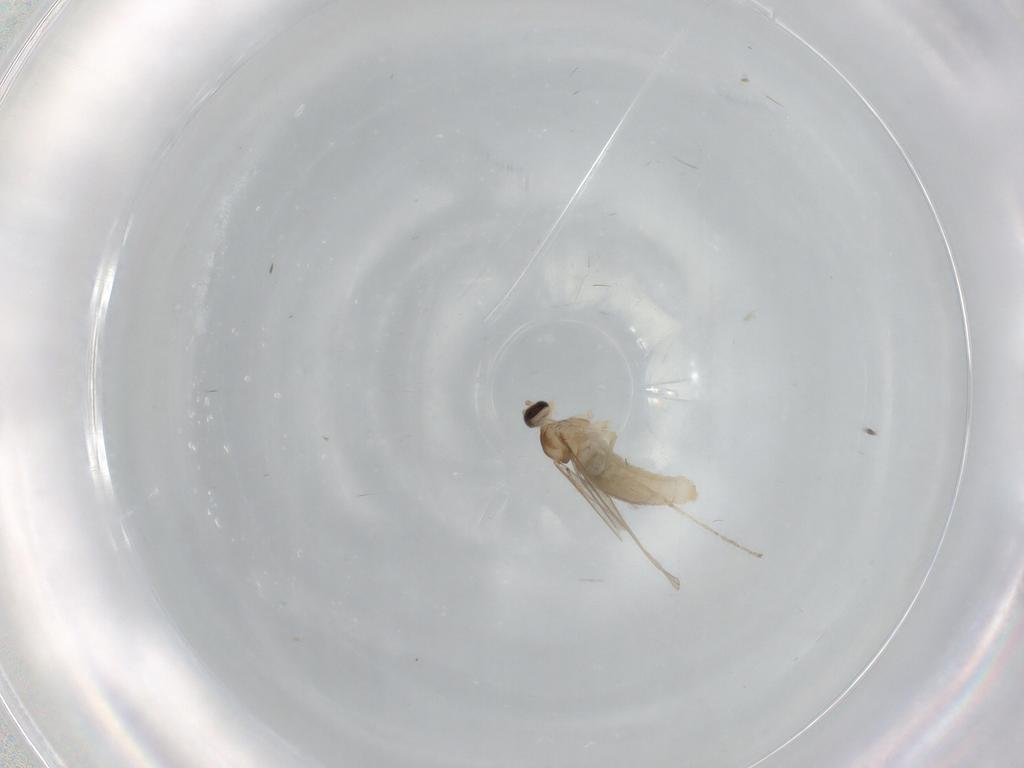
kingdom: Animalia
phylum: Arthropoda
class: Insecta
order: Diptera
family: Cecidomyiidae
